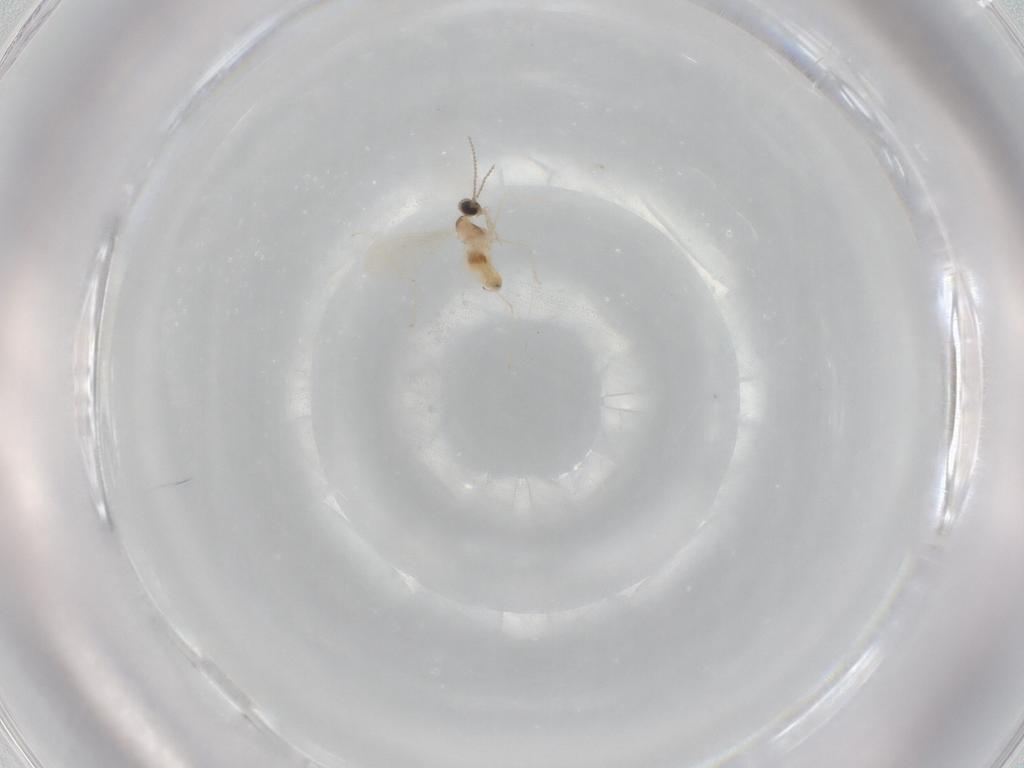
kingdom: Animalia
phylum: Arthropoda
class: Insecta
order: Diptera
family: Cecidomyiidae
